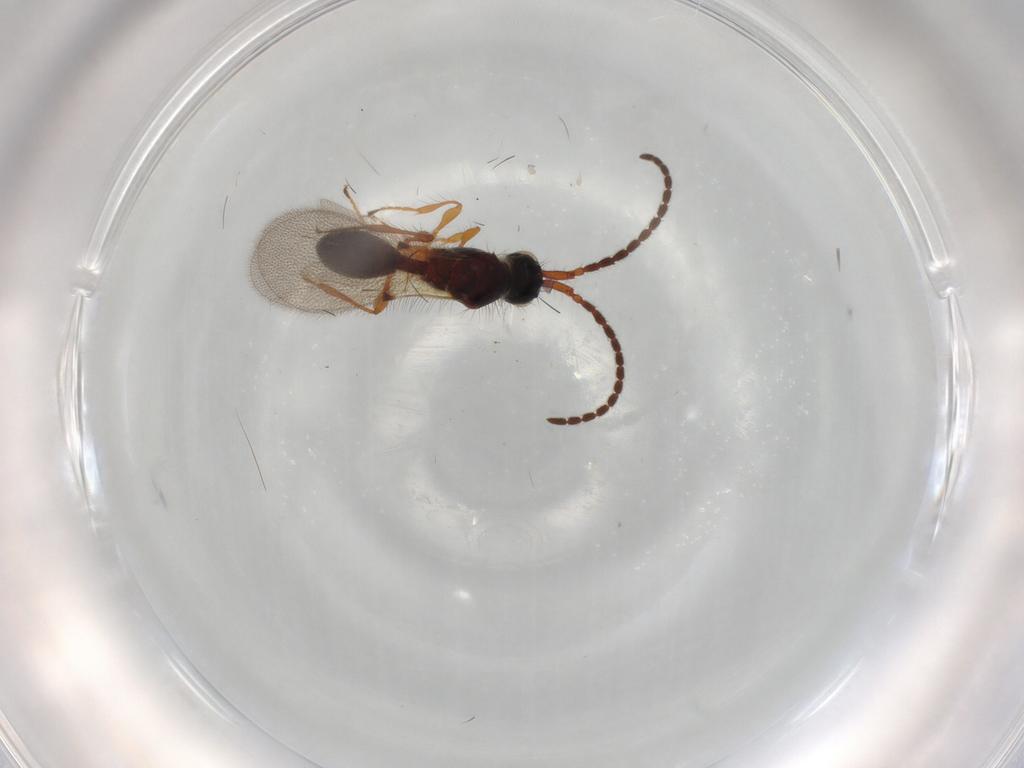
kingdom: Animalia
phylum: Arthropoda
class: Insecta
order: Hymenoptera
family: Diapriidae
